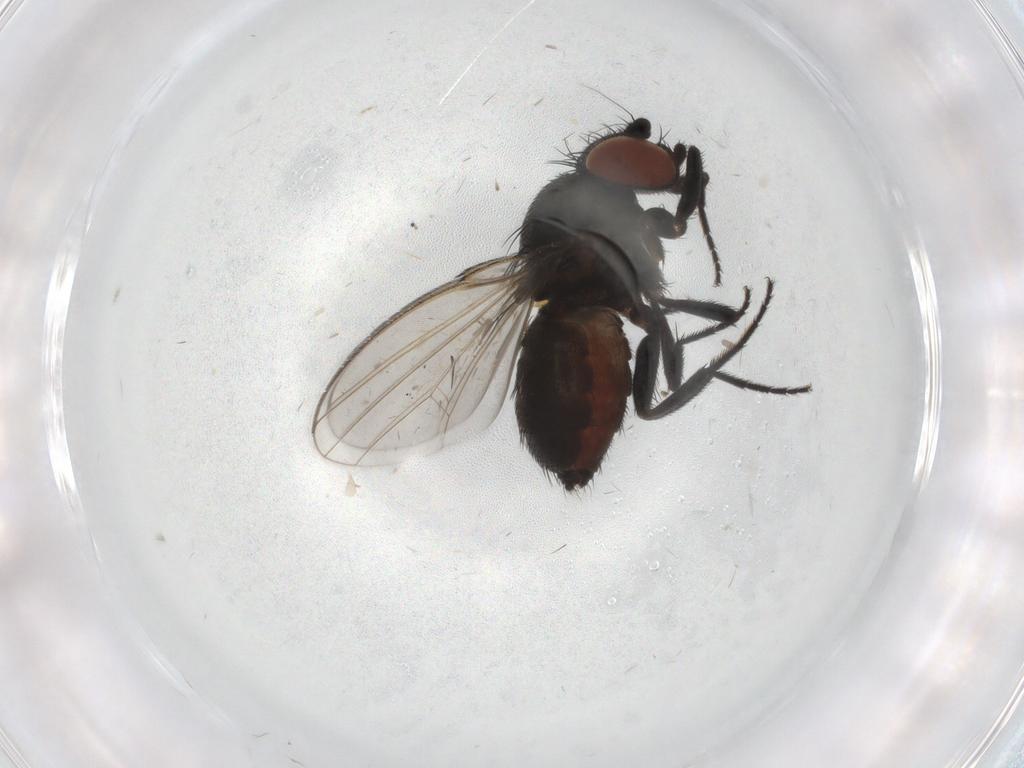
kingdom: Animalia
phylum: Arthropoda
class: Insecta
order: Diptera
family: Milichiidae
